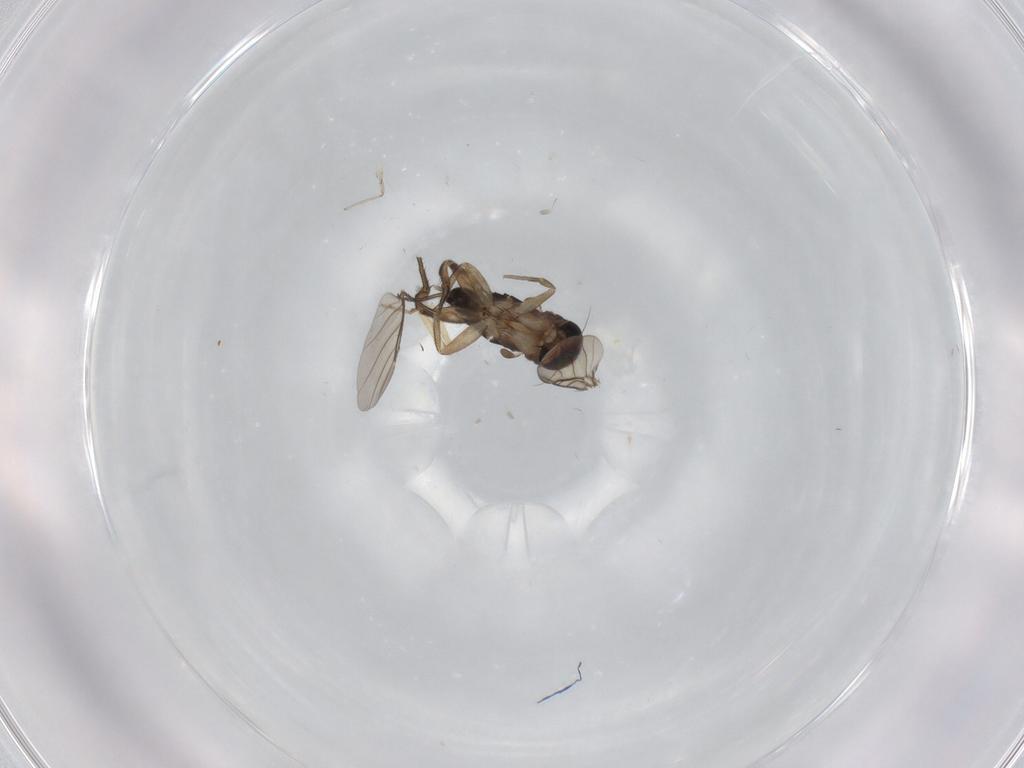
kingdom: Animalia
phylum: Arthropoda
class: Insecta
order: Diptera
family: Phoridae
